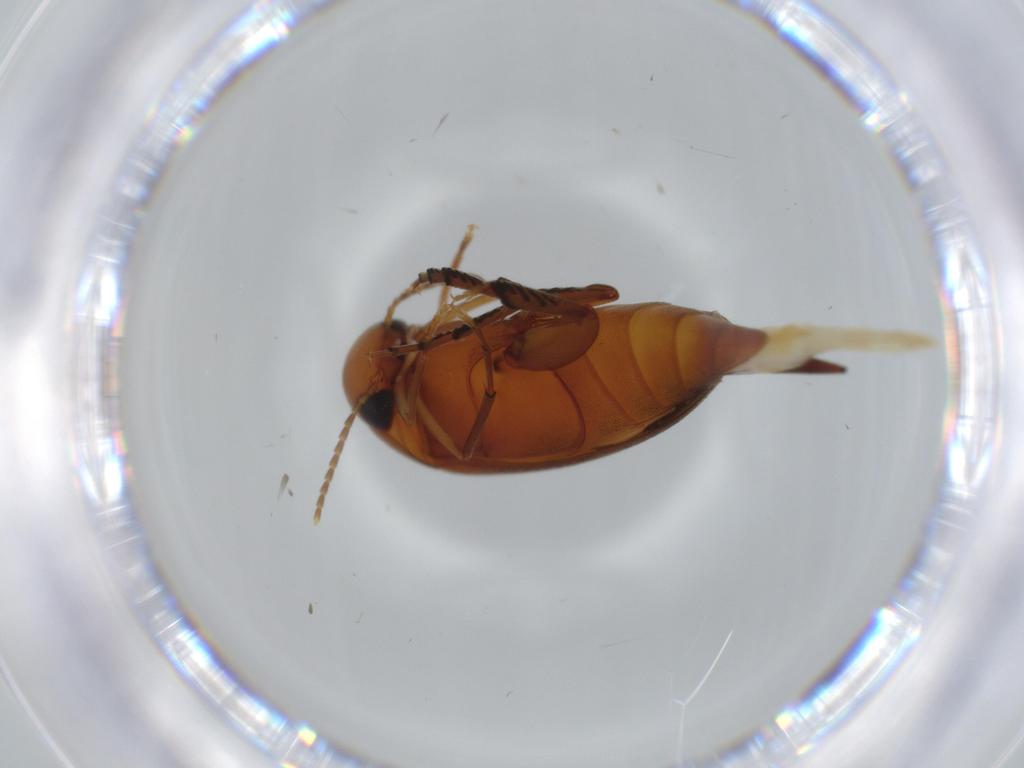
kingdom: Animalia
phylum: Arthropoda
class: Insecta
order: Coleoptera
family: Mordellidae
